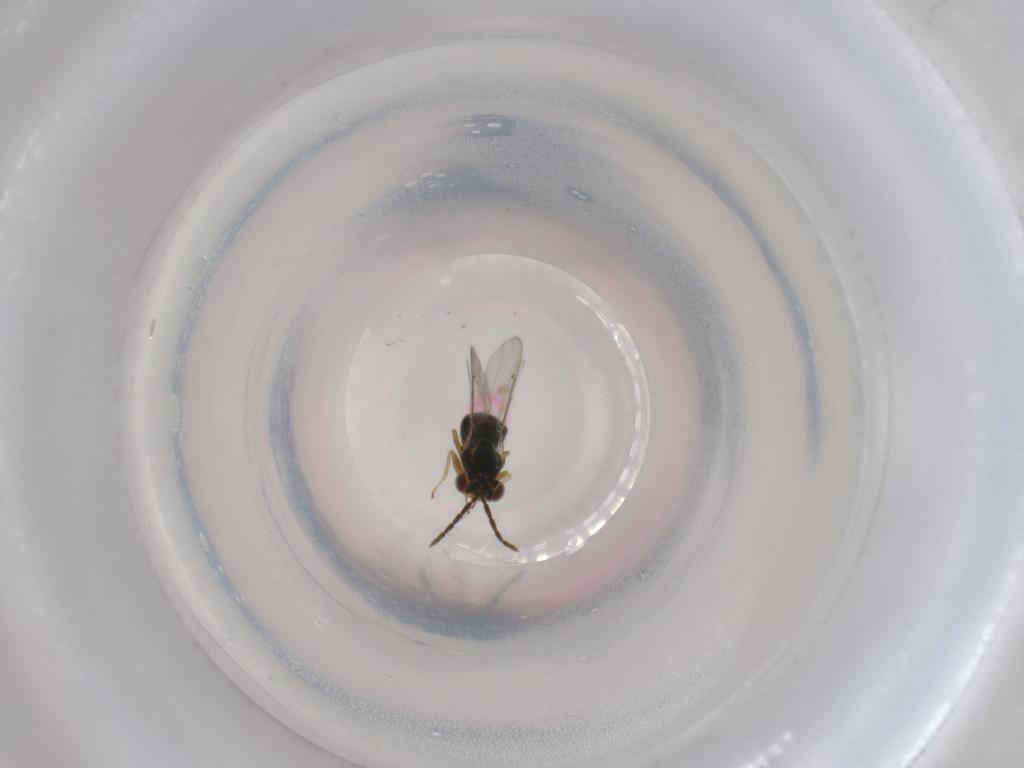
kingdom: Animalia
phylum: Arthropoda
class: Insecta
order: Hymenoptera
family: Eulophidae
